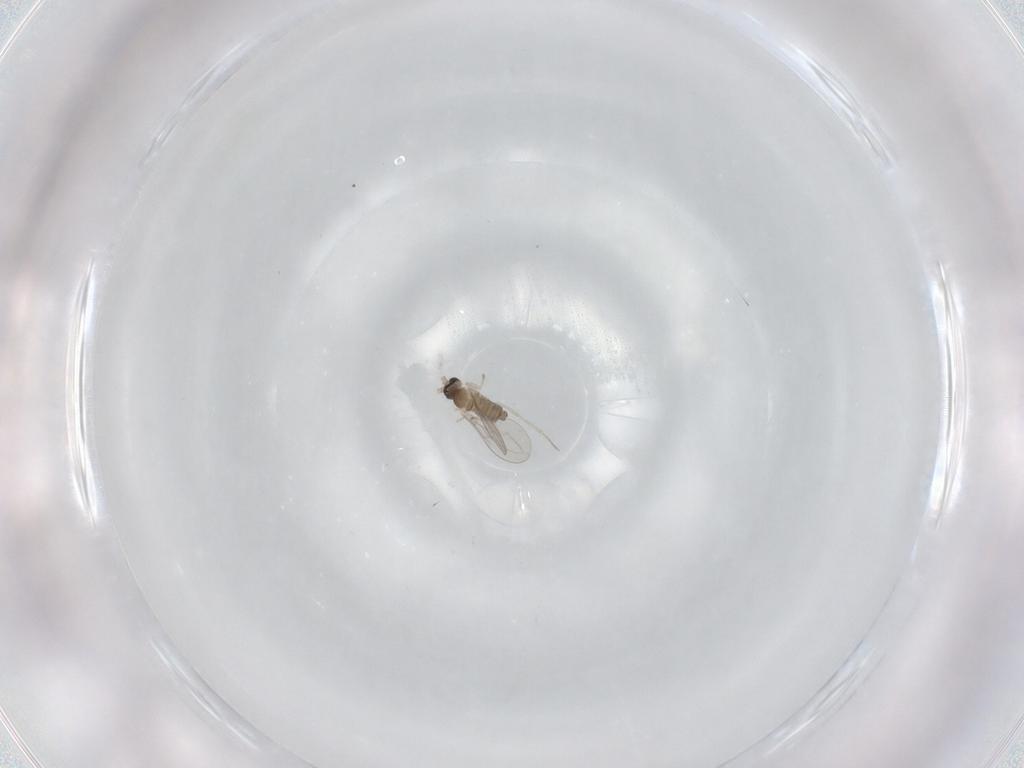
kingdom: Animalia
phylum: Arthropoda
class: Insecta
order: Diptera
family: Cecidomyiidae
